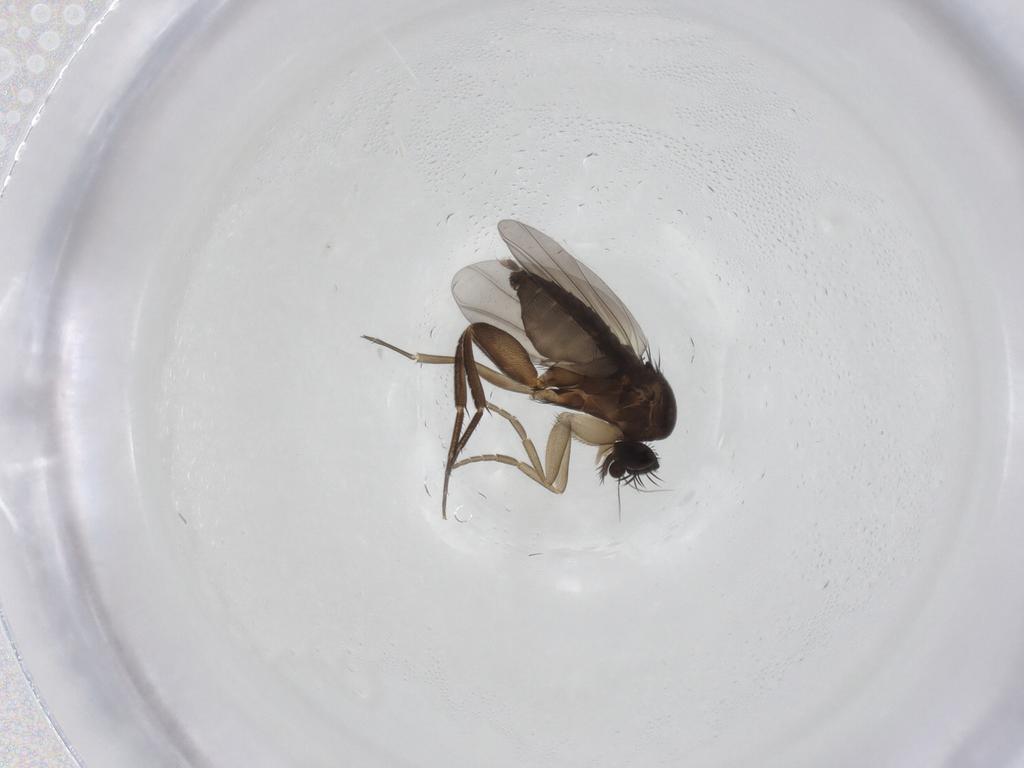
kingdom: Animalia
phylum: Arthropoda
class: Insecta
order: Diptera
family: Phoridae
